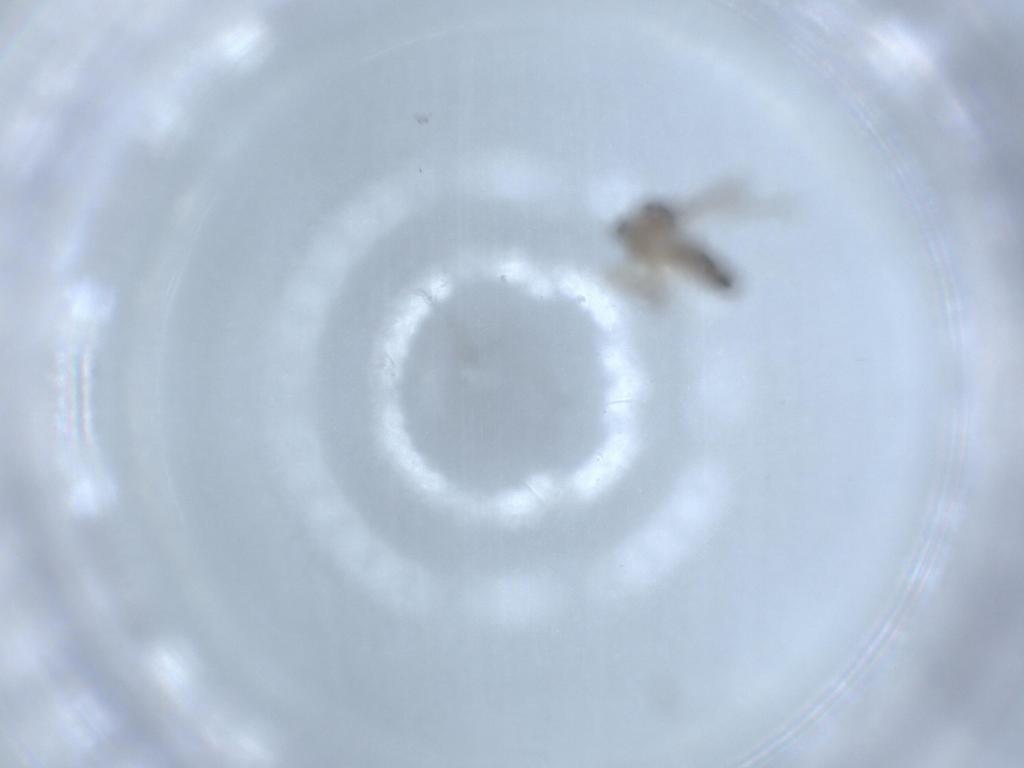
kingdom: Animalia
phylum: Arthropoda
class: Insecta
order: Diptera
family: Ceratopogonidae
